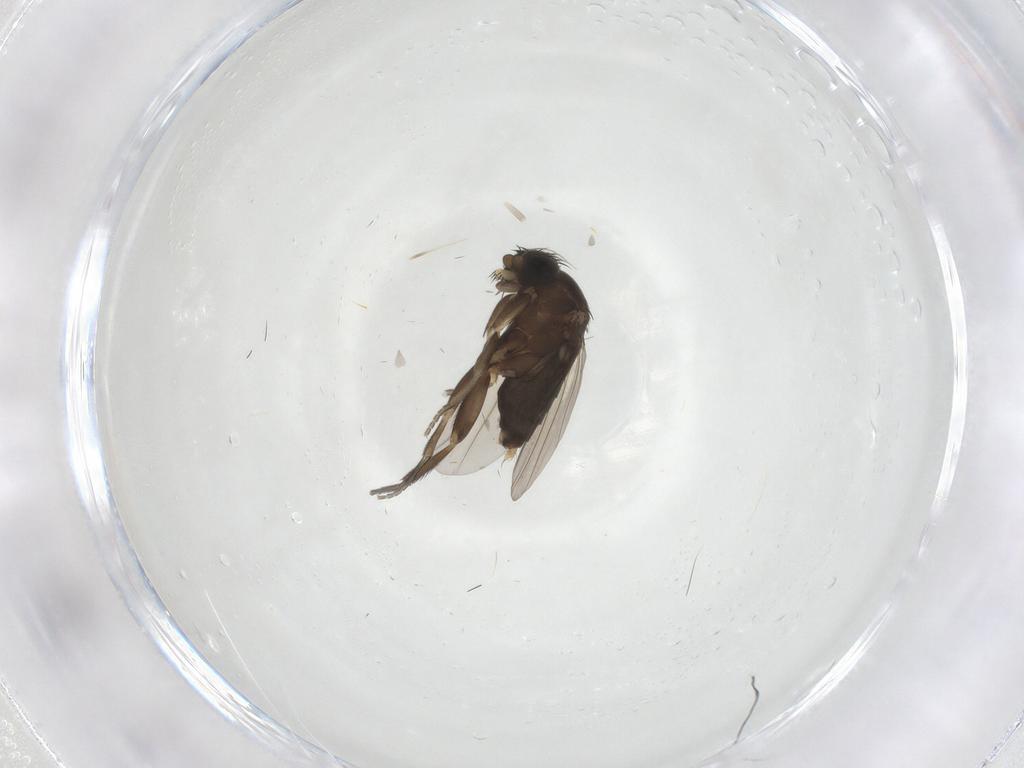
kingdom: Animalia
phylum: Arthropoda
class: Insecta
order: Diptera
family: Phoridae
